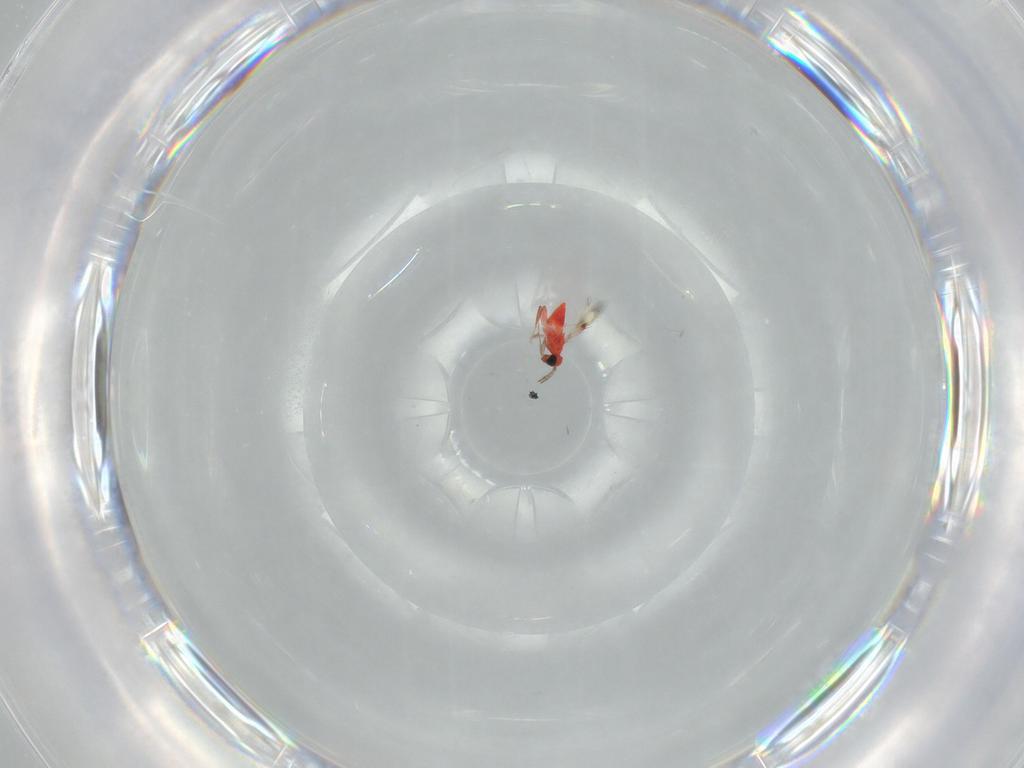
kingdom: Animalia
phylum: Arthropoda
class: Insecta
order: Hymenoptera
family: Trichogrammatidae
